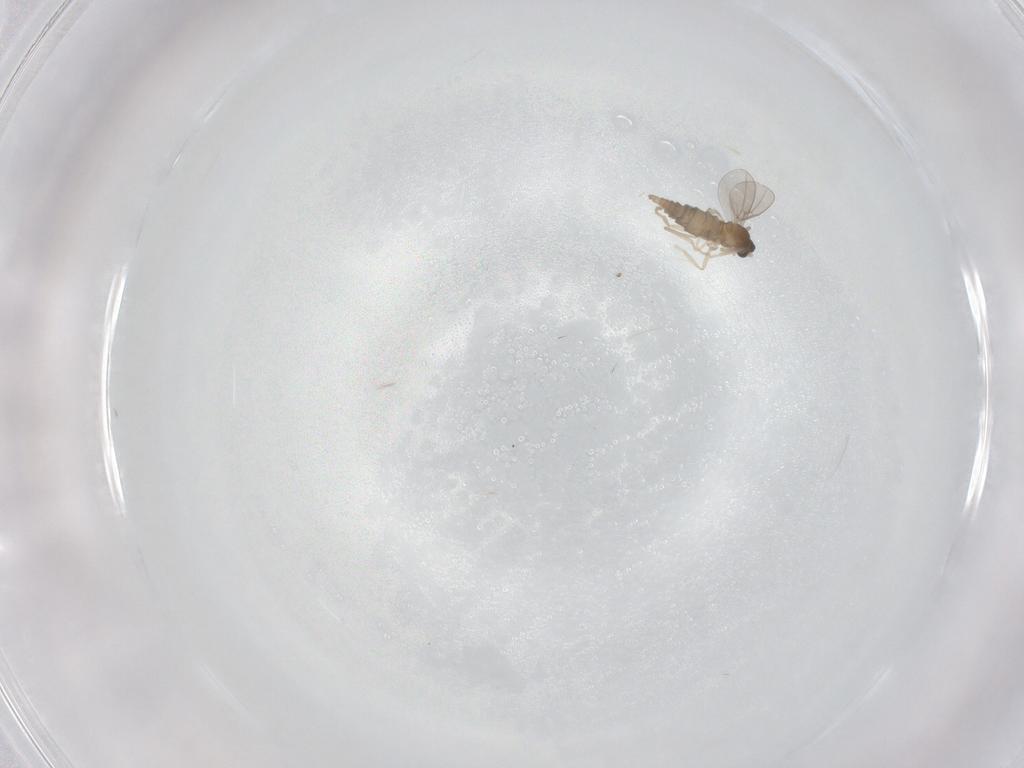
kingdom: Animalia
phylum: Arthropoda
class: Insecta
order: Diptera
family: Cecidomyiidae
